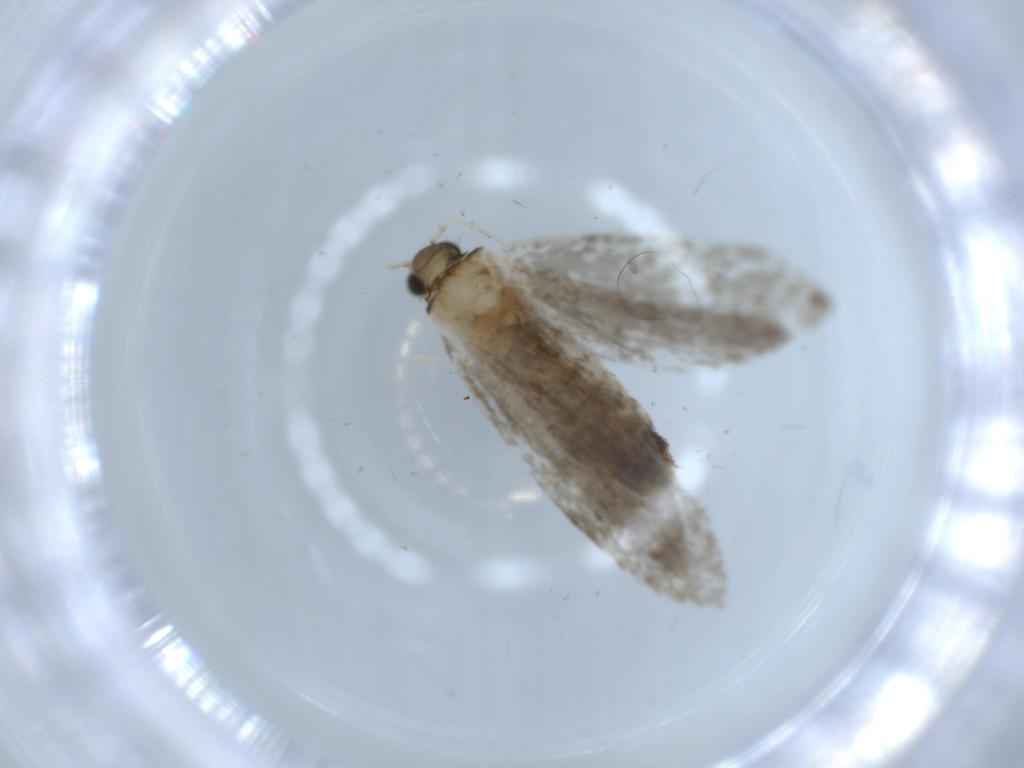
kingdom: Animalia
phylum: Arthropoda
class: Insecta
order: Lepidoptera
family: Tineidae
